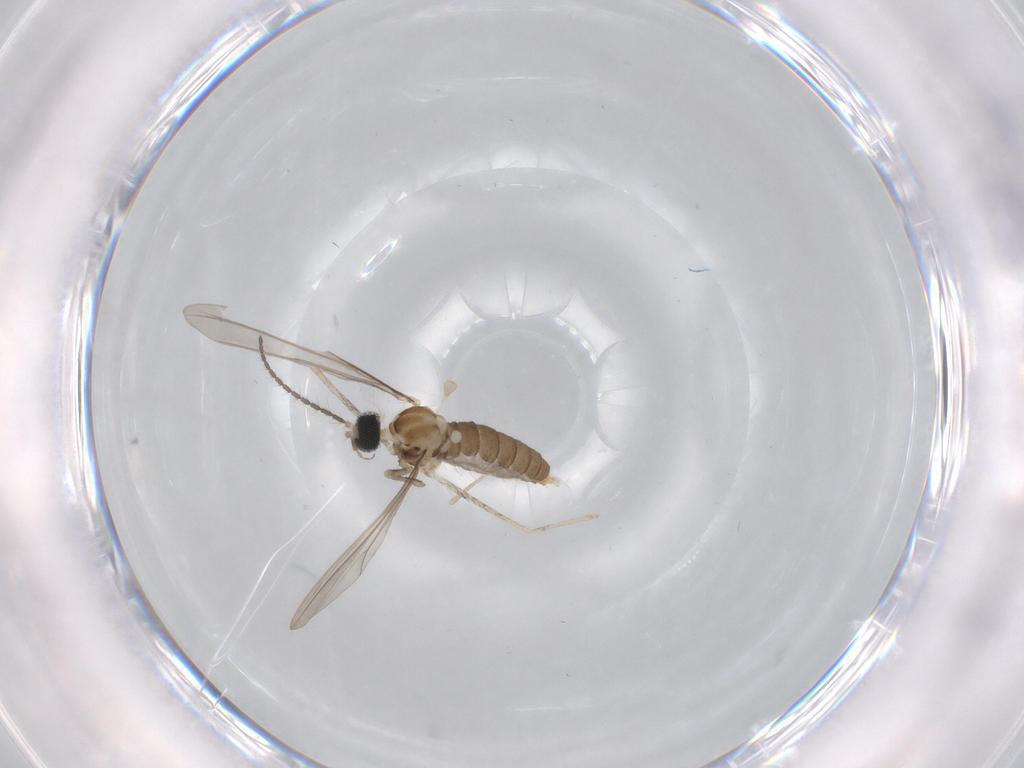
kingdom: Animalia
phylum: Arthropoda
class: Insecta
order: Diptera
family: Cecidomyiidae
